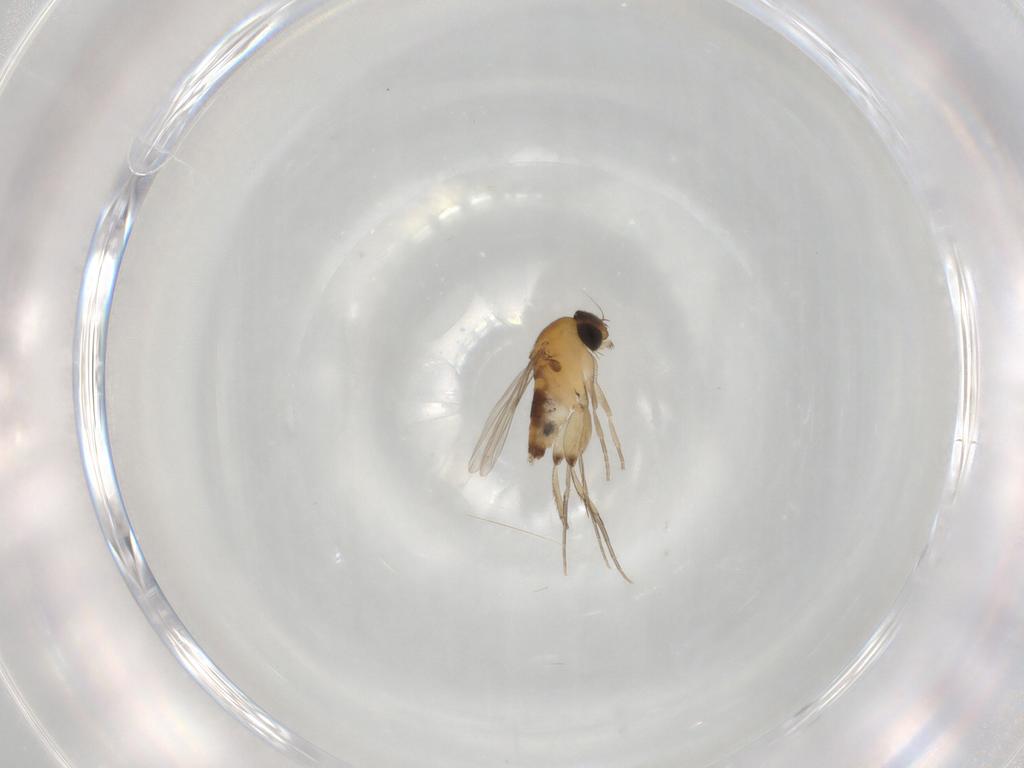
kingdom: Animalia
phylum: Arthropoda
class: Insecta
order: Diptera
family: Phoridae
